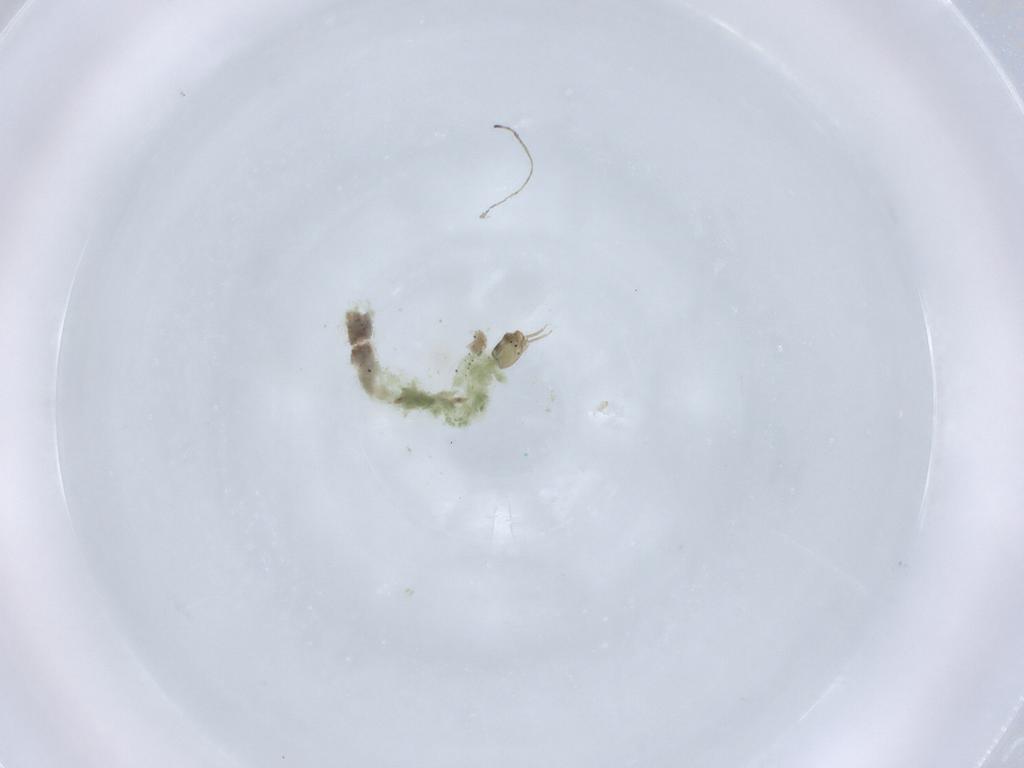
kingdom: Animalia
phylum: Arthropoda
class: Insecta
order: Diptera
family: Chironomidae
